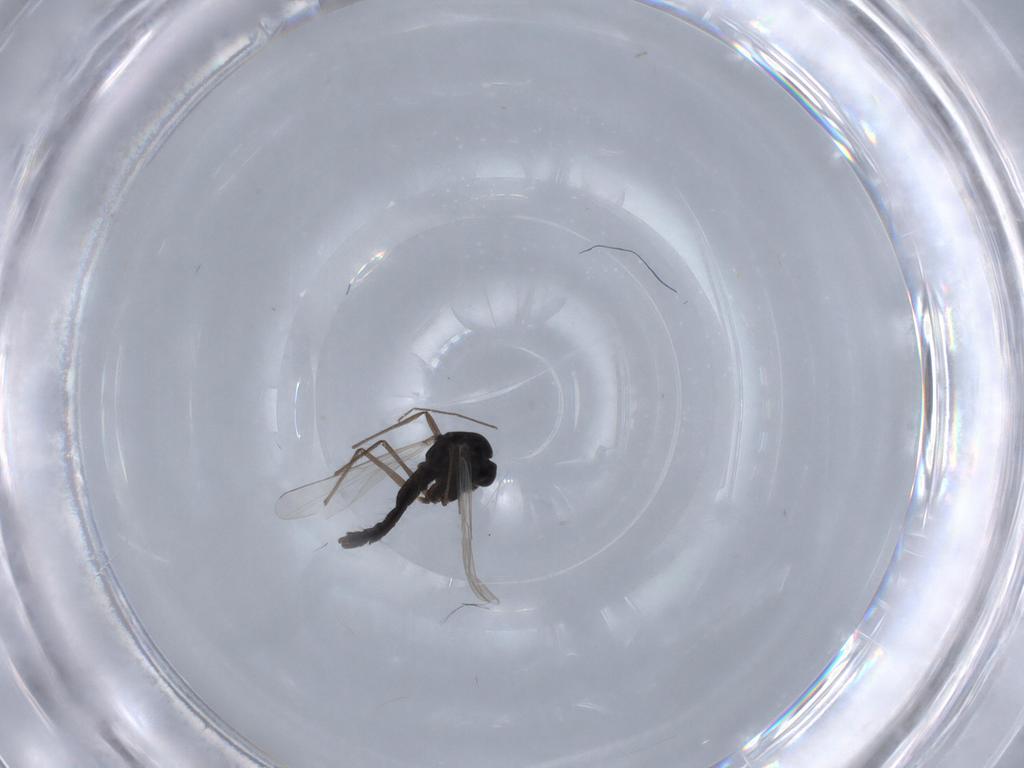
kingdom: Animalia
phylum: Arthropoda
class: Insecta
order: Diptera
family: Chironomidae
